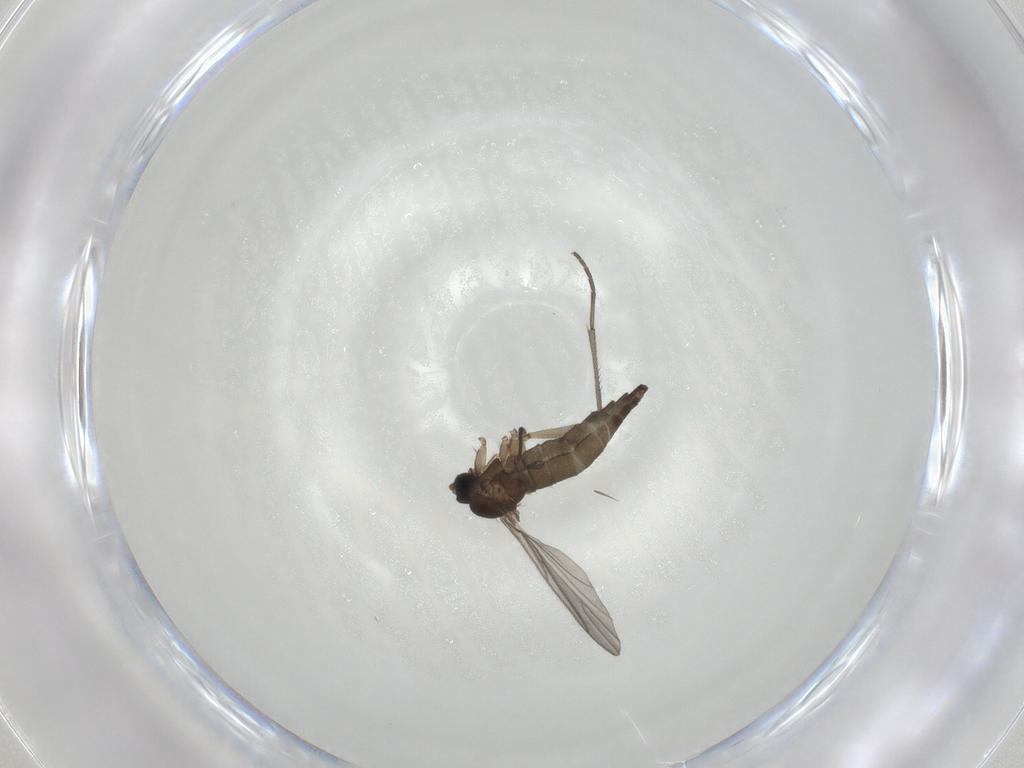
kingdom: Animalia
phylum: Arthropoda
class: Insecta
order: Diptera
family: Sciaridae
